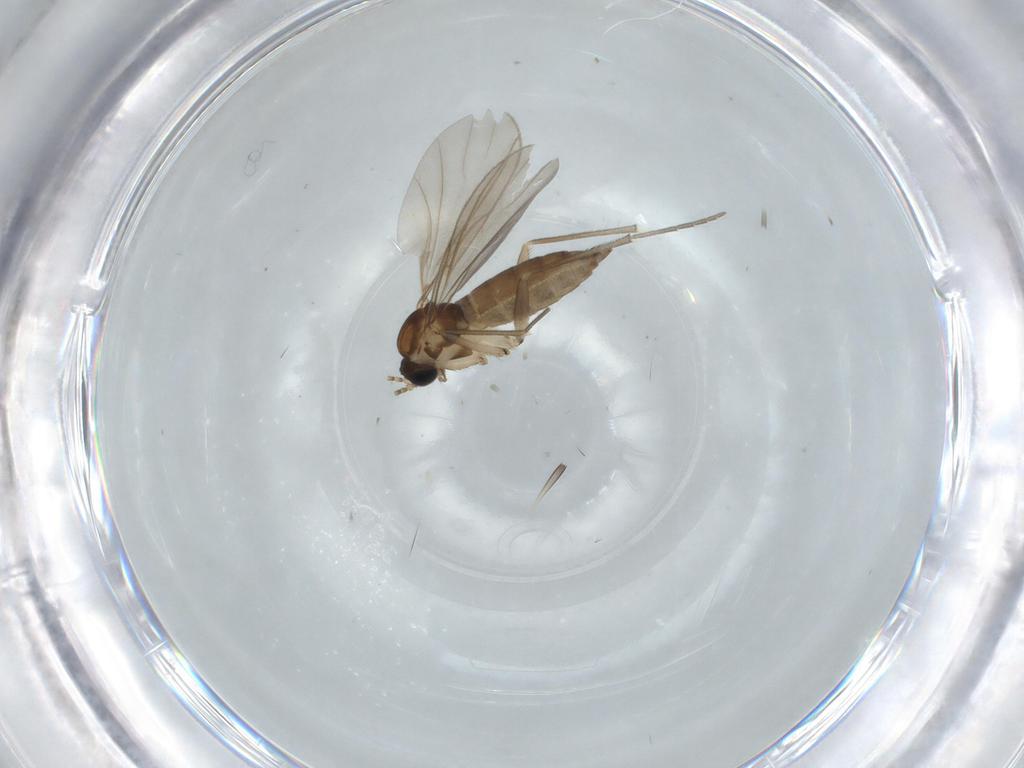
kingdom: Animalia
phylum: Arthropoda
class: Insecta
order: Diptera
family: Sciaridae
